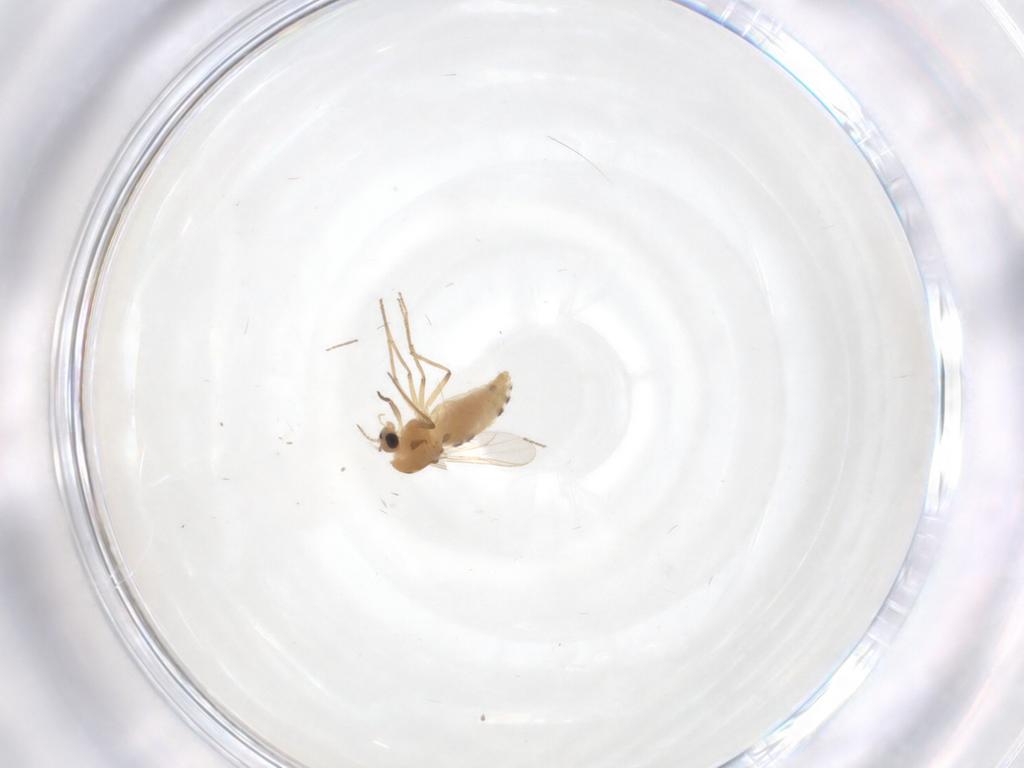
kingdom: Animalia
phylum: Arthropoda
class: Insecta
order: Diptera
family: Chironomidae
